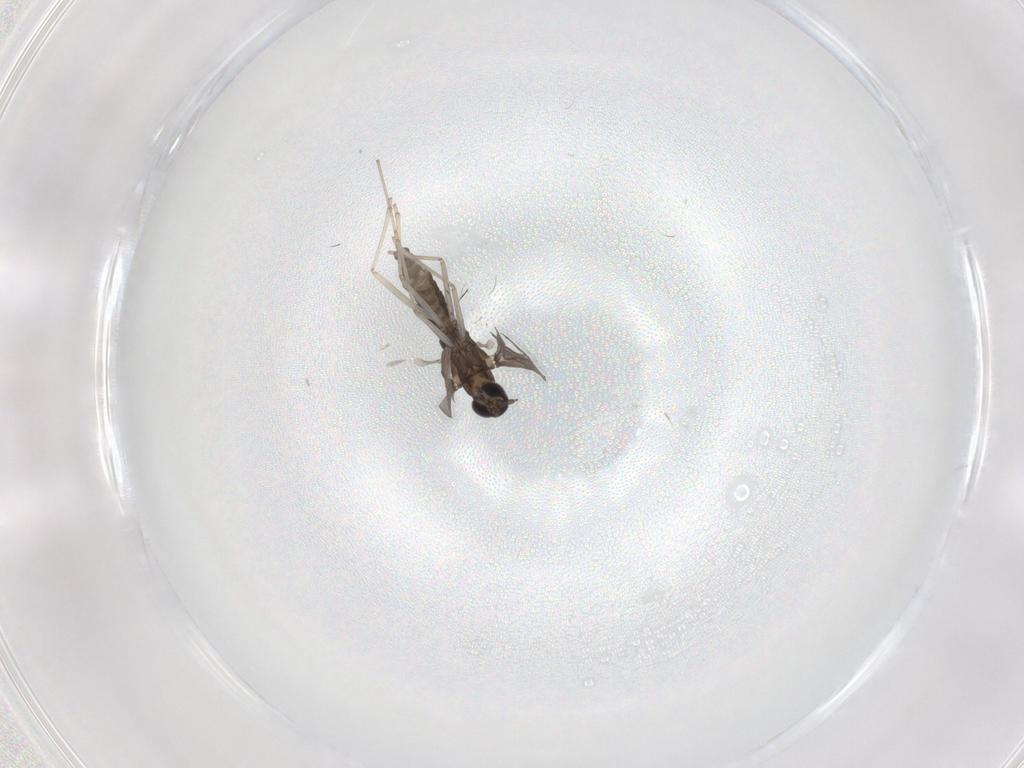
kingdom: Animalia
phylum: Arthropoda
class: Insecta
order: Diptera
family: Cecidomyiidae
